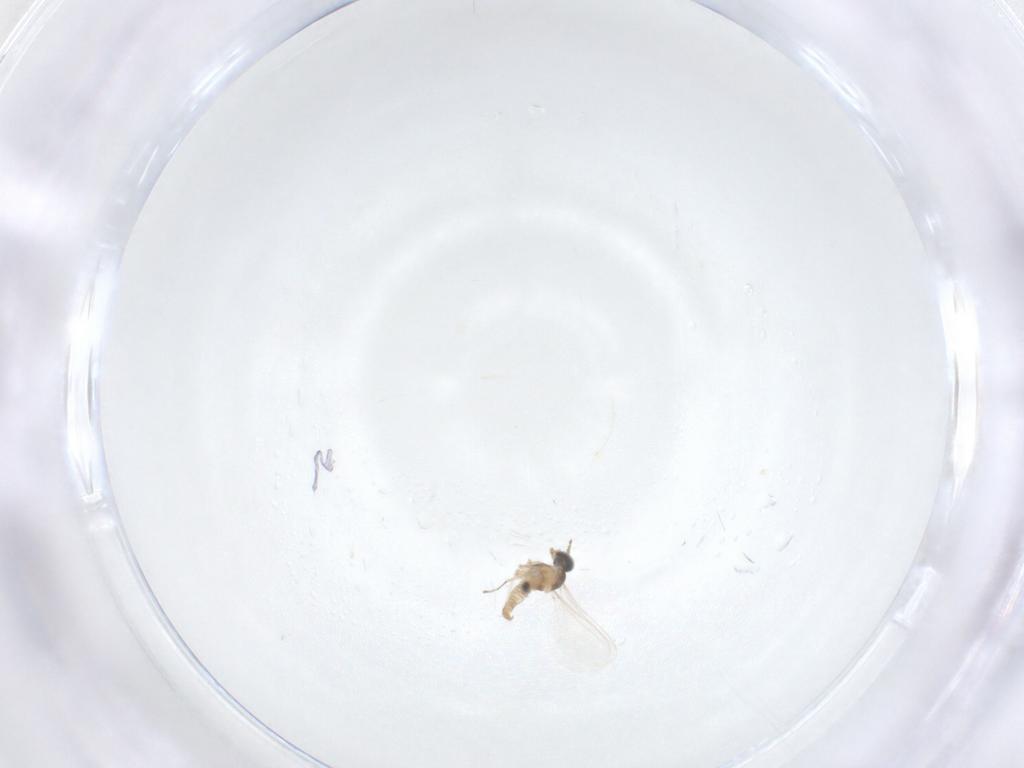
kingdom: Animalia
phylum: Arthropoda
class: Insecta
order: Diptera
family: Cecidomyiidae
